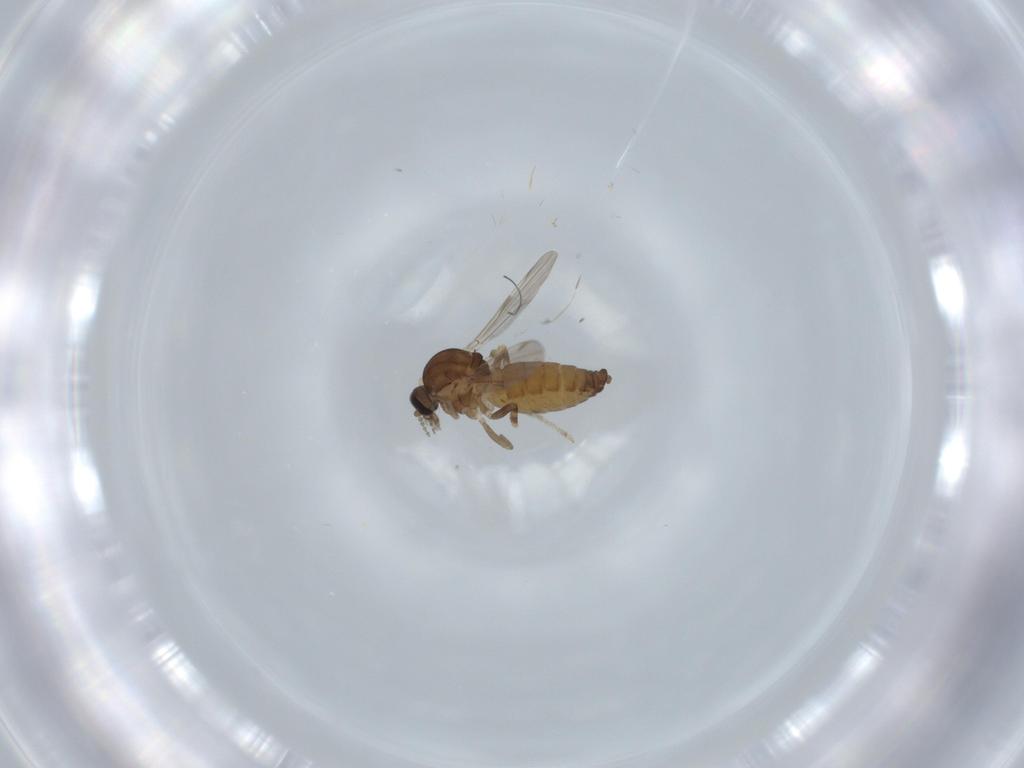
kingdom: Animalia
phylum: Arthropoda
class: Insecta
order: Diptera
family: Ceratopogonidae
